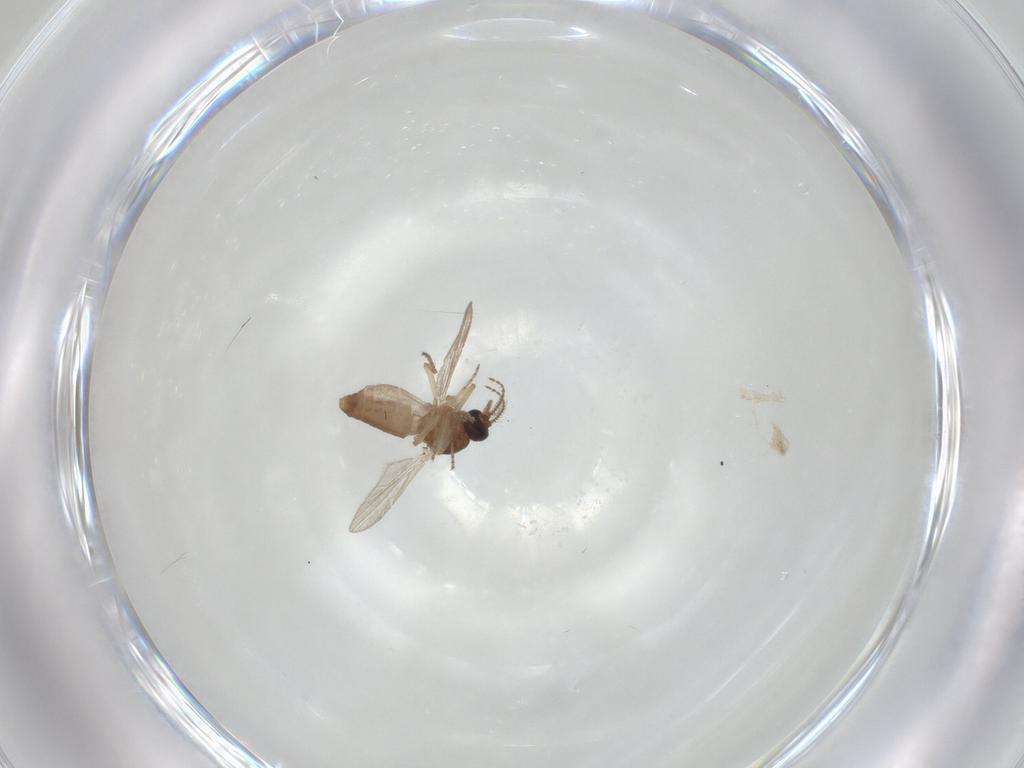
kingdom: Animalia
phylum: Arthropoda
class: Insecta
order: Diptera
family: Ceratopogonidae
